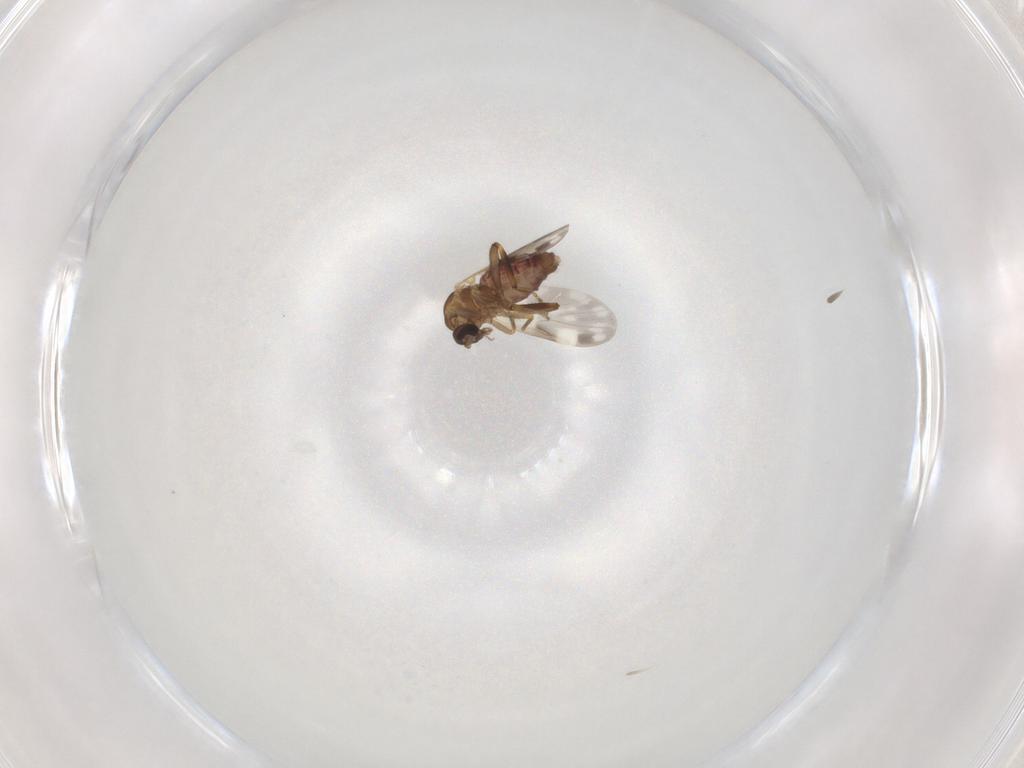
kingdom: Animalia
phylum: Arthropoda
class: Insecta
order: Diptera
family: Ceratopogonidae
